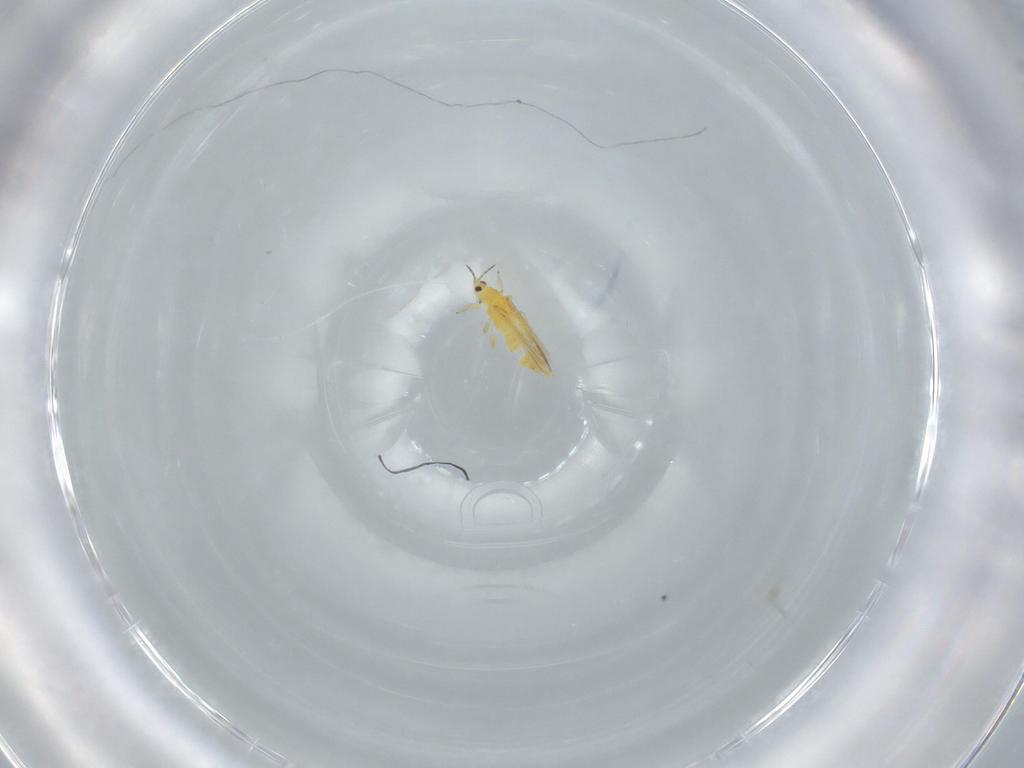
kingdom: Animalia
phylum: Arthropoda
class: Insecta
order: Thysanoptera
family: Thripidae
